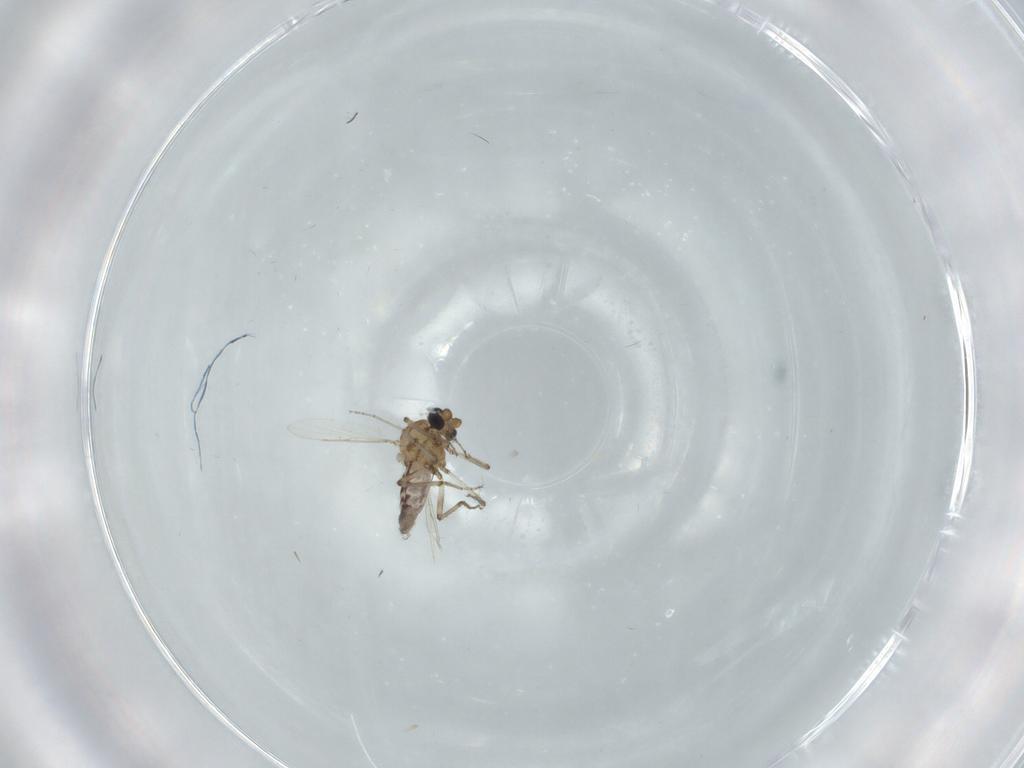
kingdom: Animalia
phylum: Arthropoda
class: Insecta
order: Diptera
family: Ceratopogonidae
